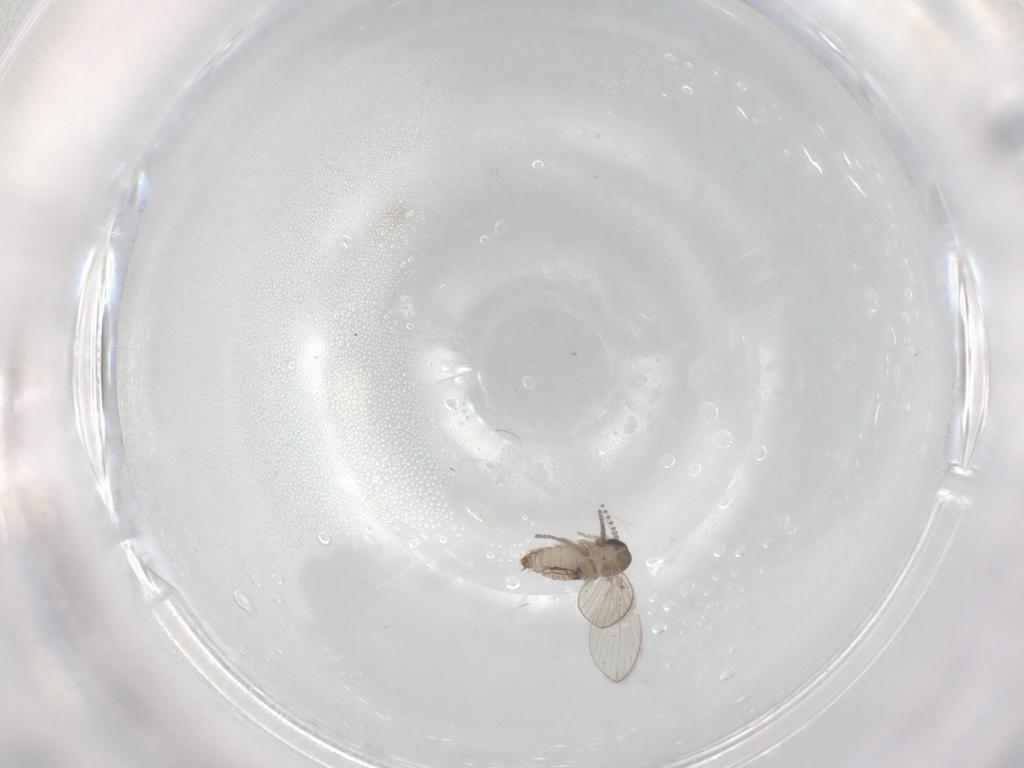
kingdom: Animalia
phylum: Arthropoda
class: Insecta
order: Diptera
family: Psychodidae
